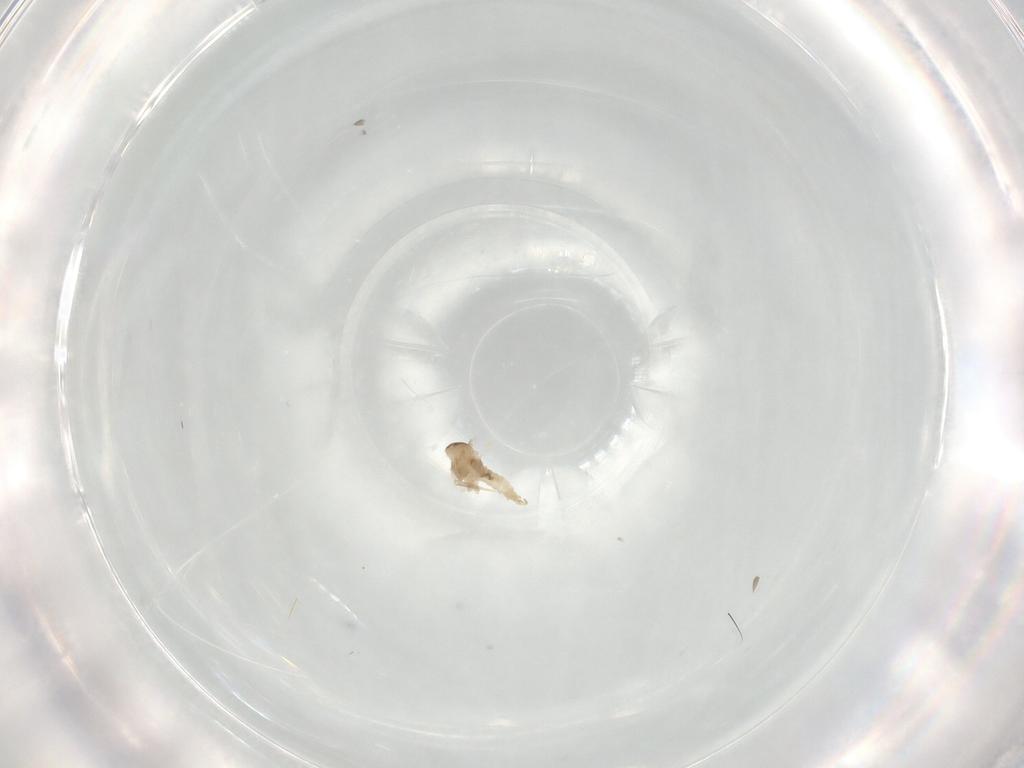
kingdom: Animalia
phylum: Arthropoda
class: Insecta
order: Diptera
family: Cecidomyiidae
